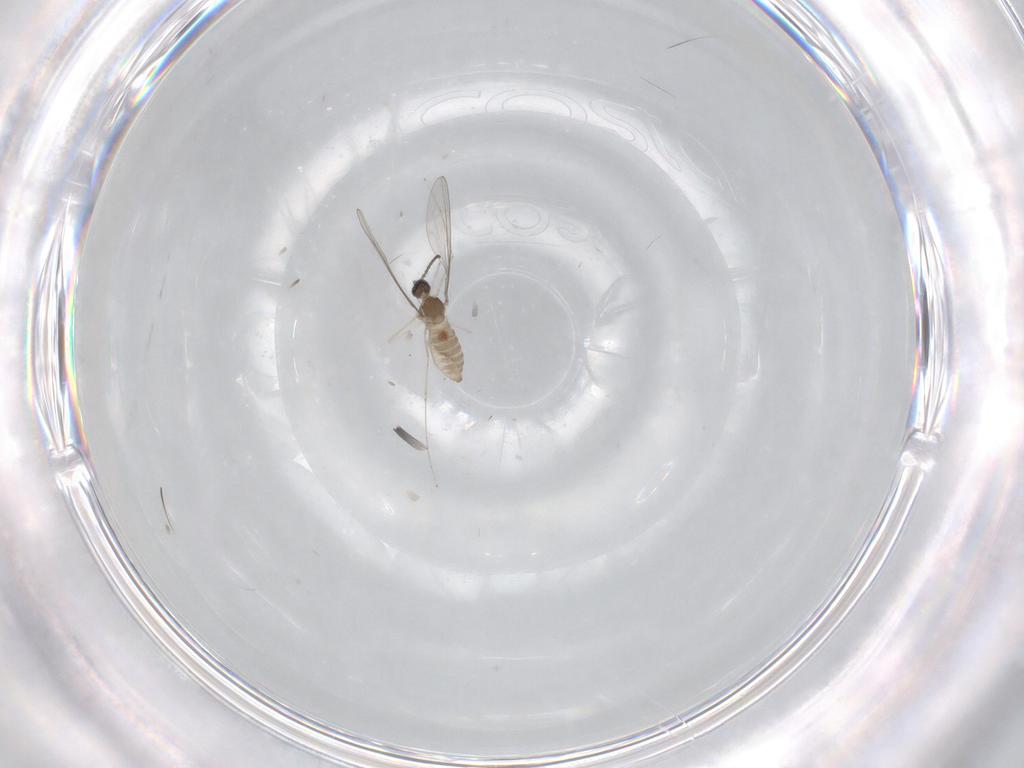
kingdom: Animalia
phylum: Arthropoda
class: Insecta
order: Diptera
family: Cecidomyiidae
